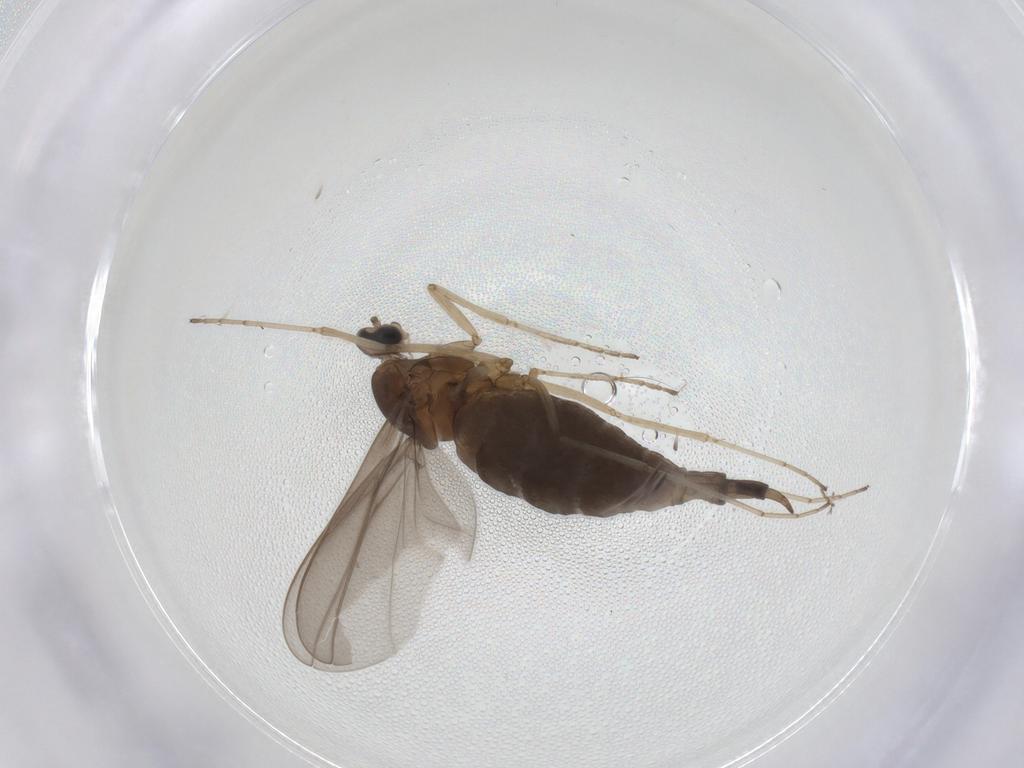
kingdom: Animalia
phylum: Arthropoda
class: Insecta
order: Diptera
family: Cecidomyiidae
